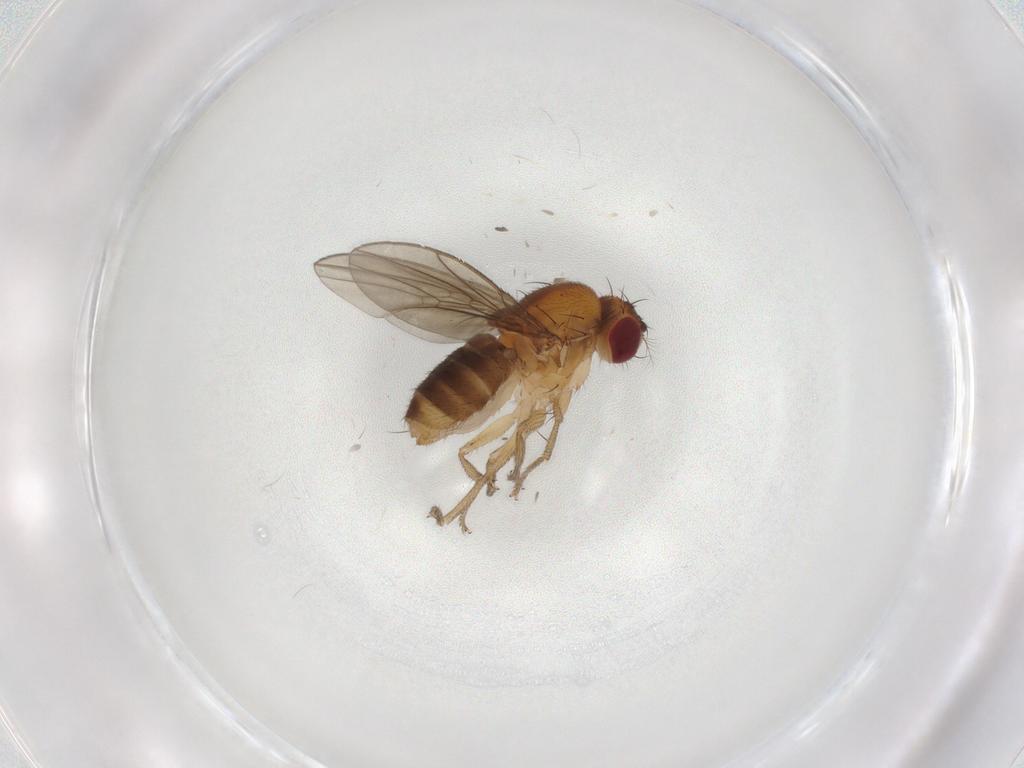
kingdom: Animalia
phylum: Arthropoda
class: Insecta
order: Diptera
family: Drosophilidae
